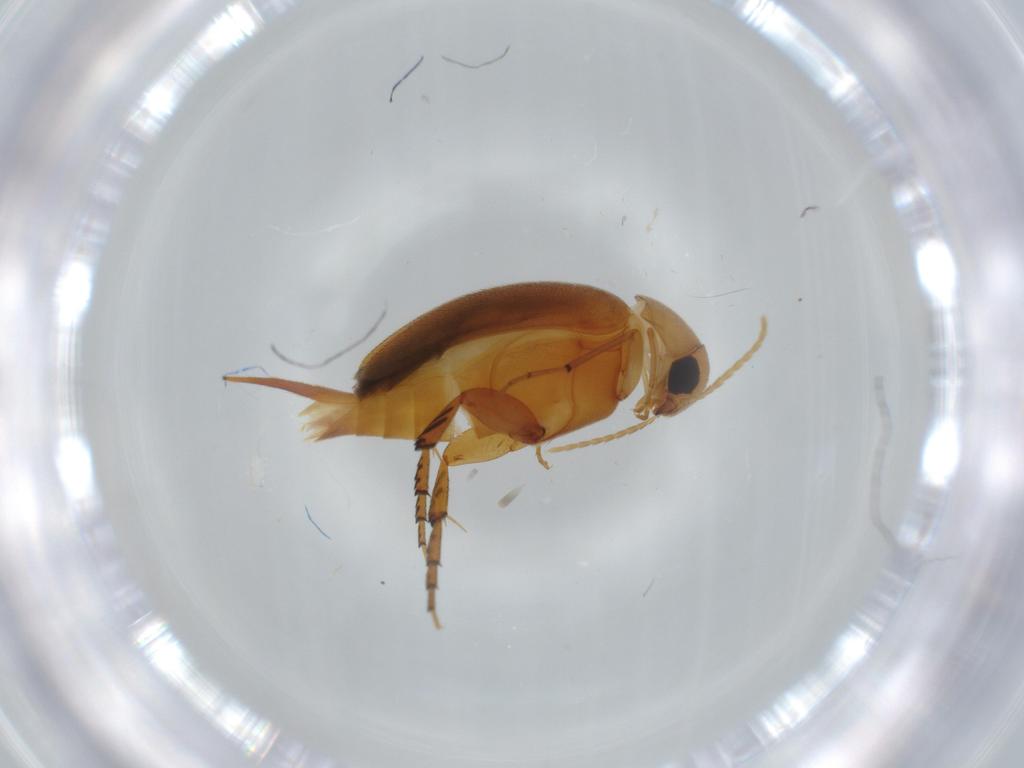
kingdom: Animalia
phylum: Arthropoda
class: Insecta
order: Coleoptera
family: Mordellidae
